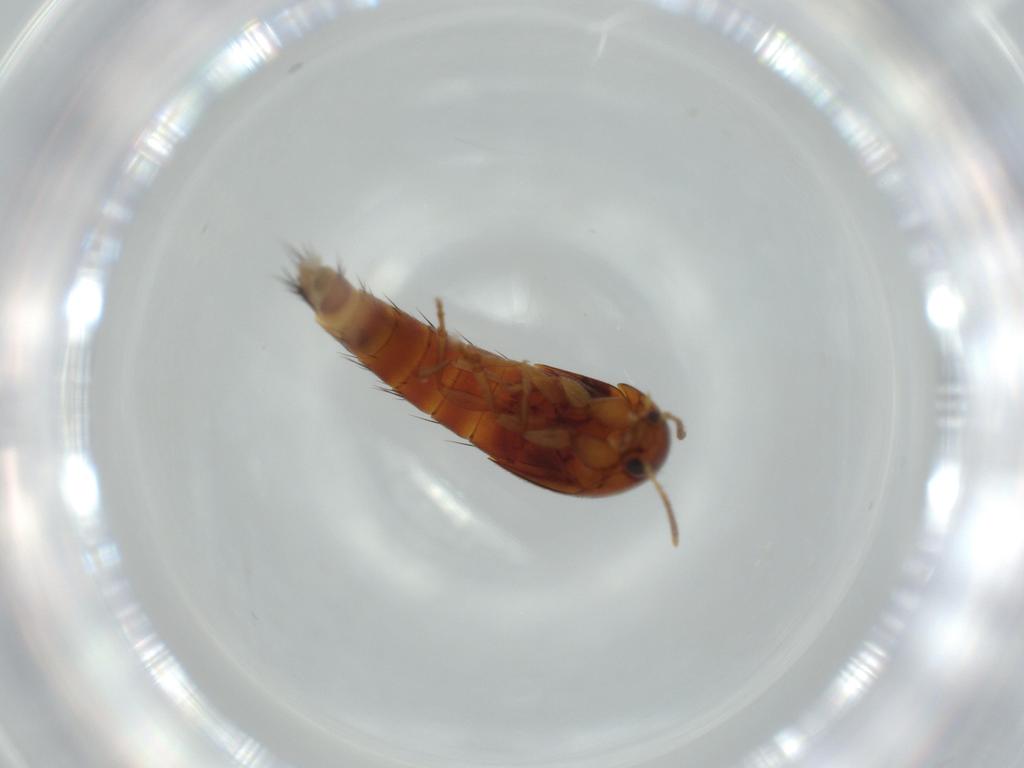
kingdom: Animalia
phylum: Arthropoda
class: Insecta
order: Coleoptera
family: Staphylinidae
